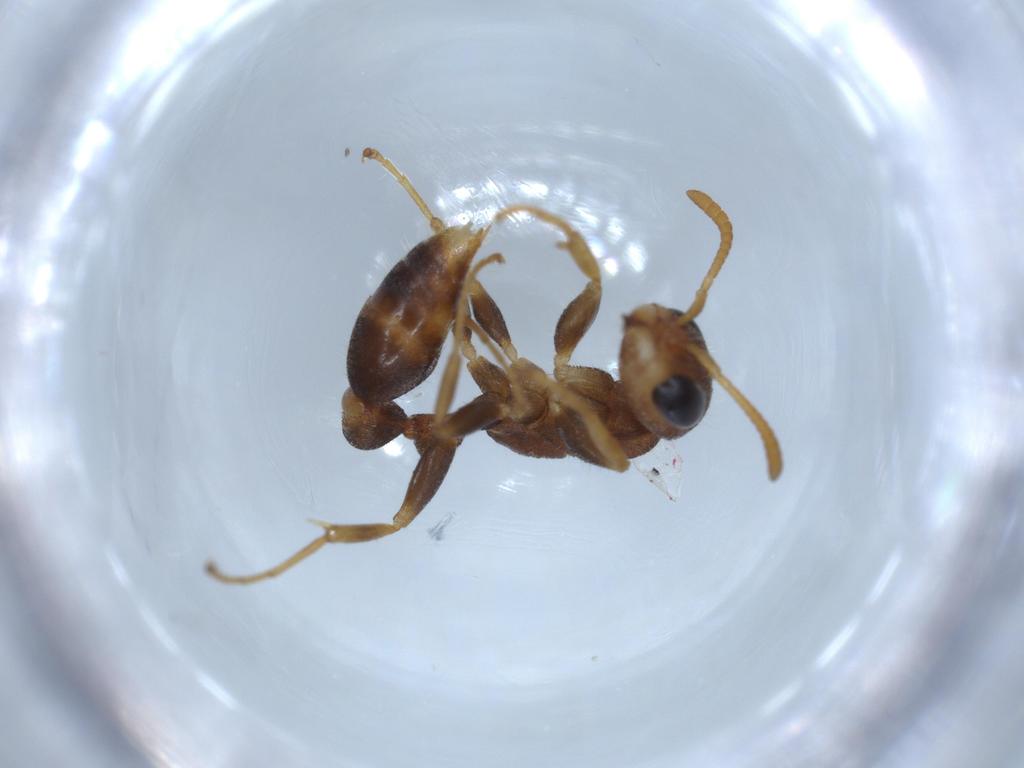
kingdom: Animalia
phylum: Arthropoda
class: Insecta
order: Hymenoptera
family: Formicidae
